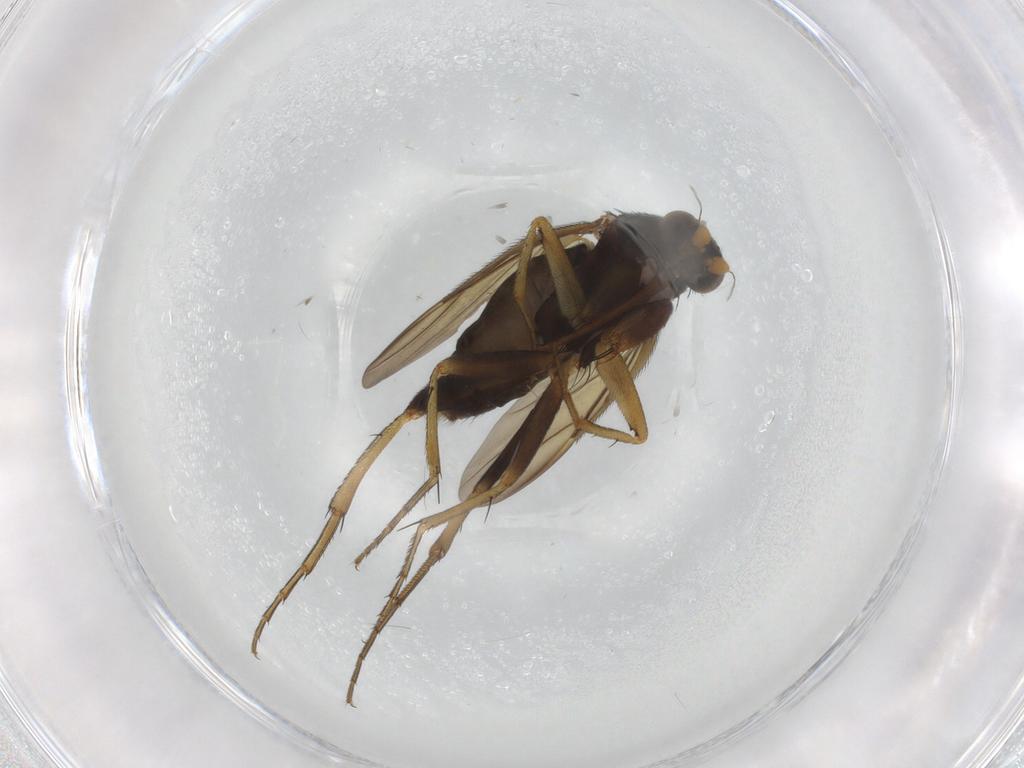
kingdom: Animalia
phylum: Arthropoda
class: Insecta
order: Diptera
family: Phoridae
